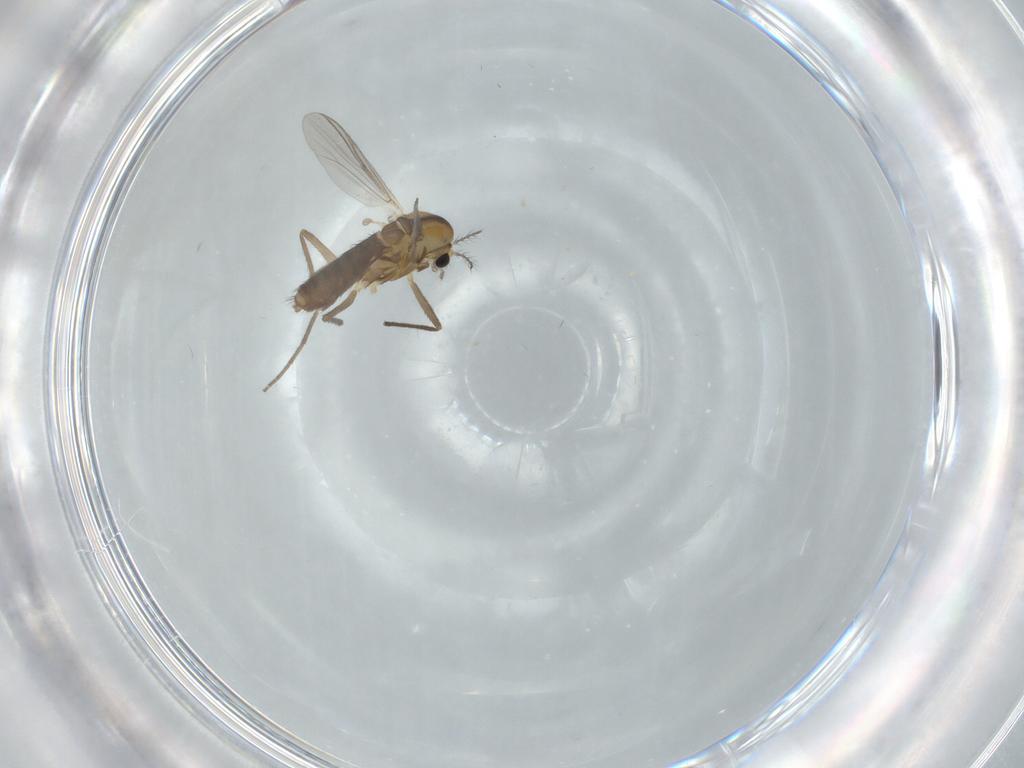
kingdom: Animalia
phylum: Arthropoda
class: Insecta
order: Diptera
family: Chironomidae
